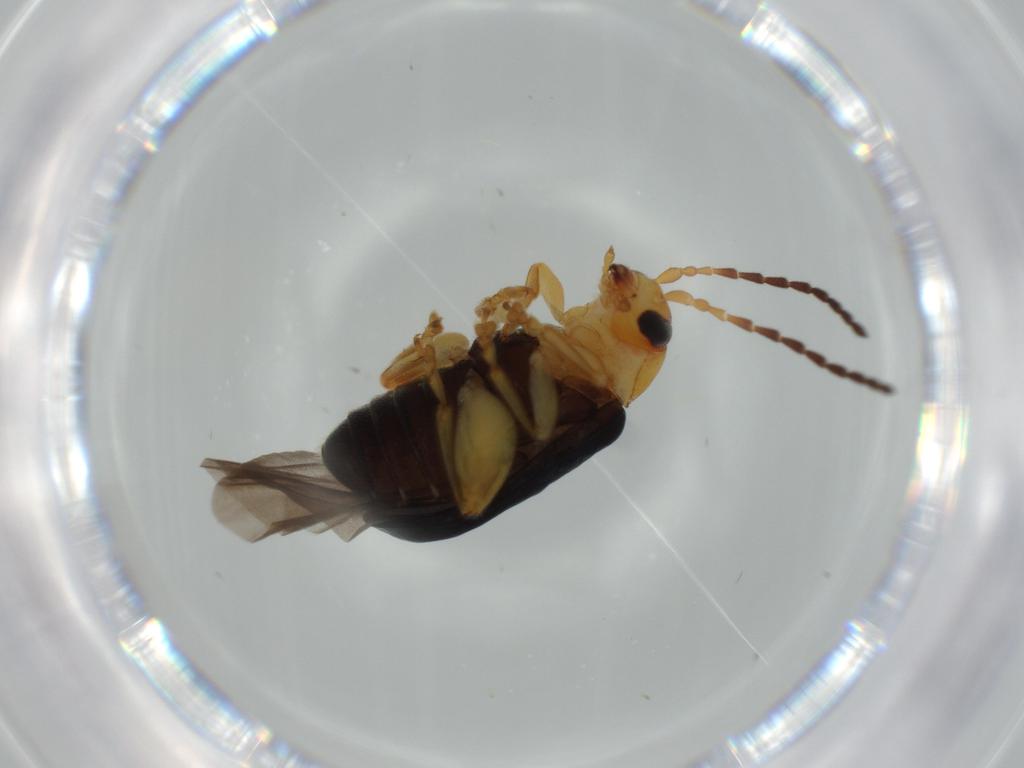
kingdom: Animalia
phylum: Arthropoda
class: Insecta
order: Coleoptera
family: Chrysomelidae
